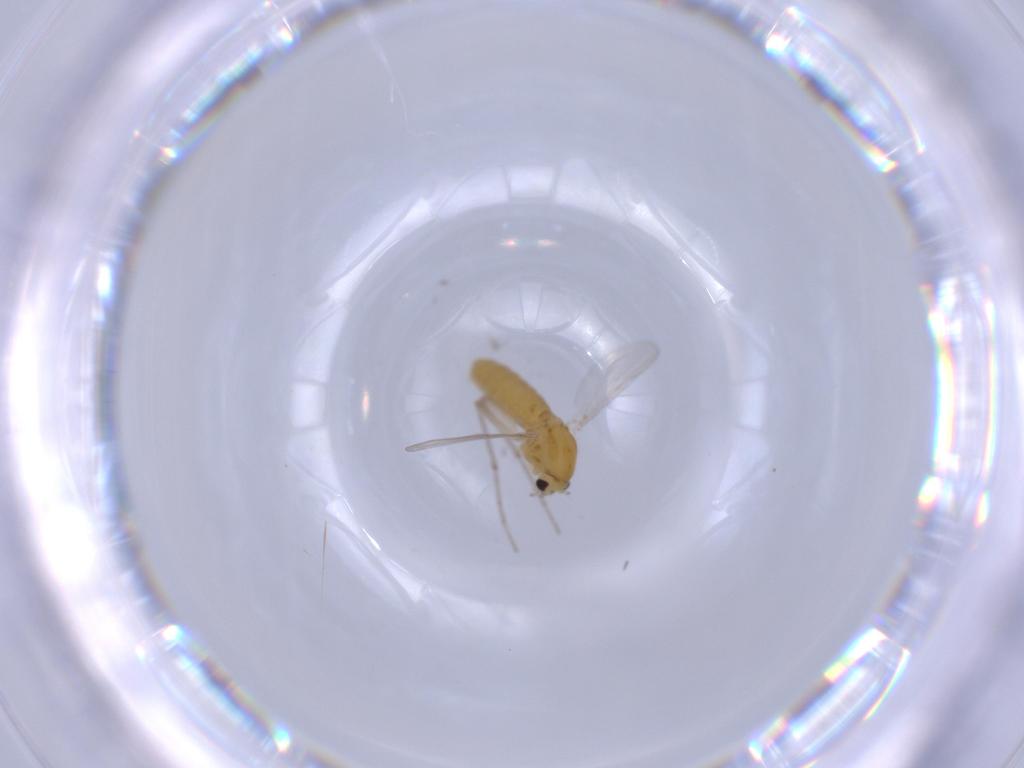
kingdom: Animalia
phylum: Arthropoda
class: Insecta
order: Diptera
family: Chironomidae
